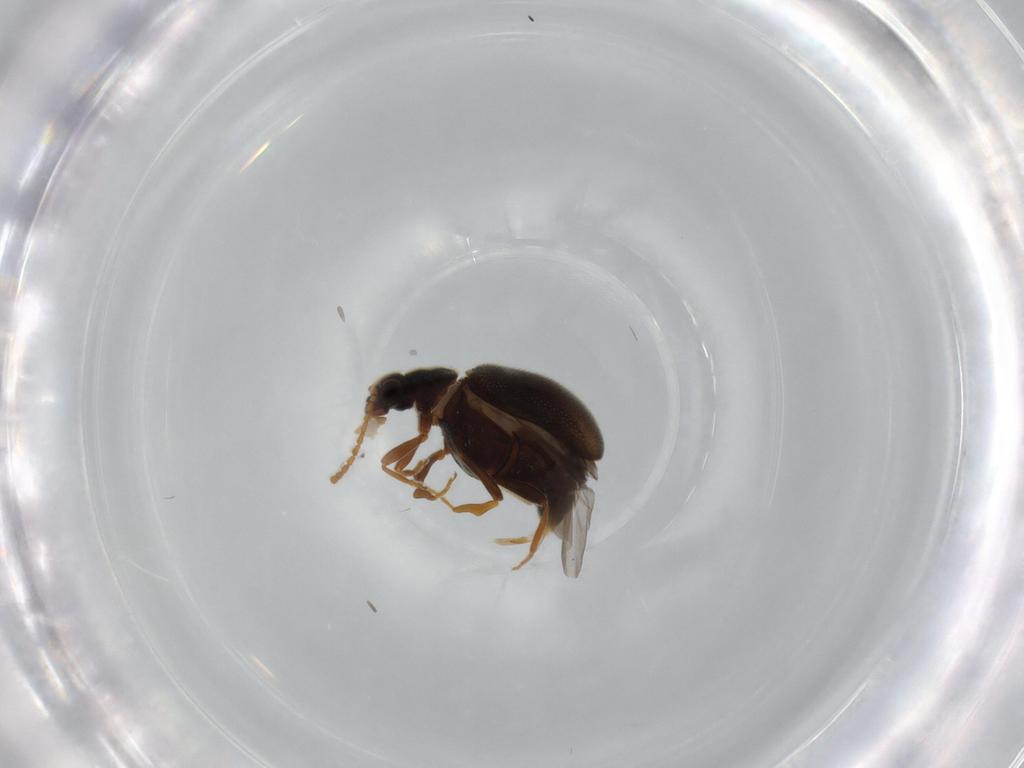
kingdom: Animalia
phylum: Arthropoda
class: Insecta
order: Coleoptera
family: Aderidae
